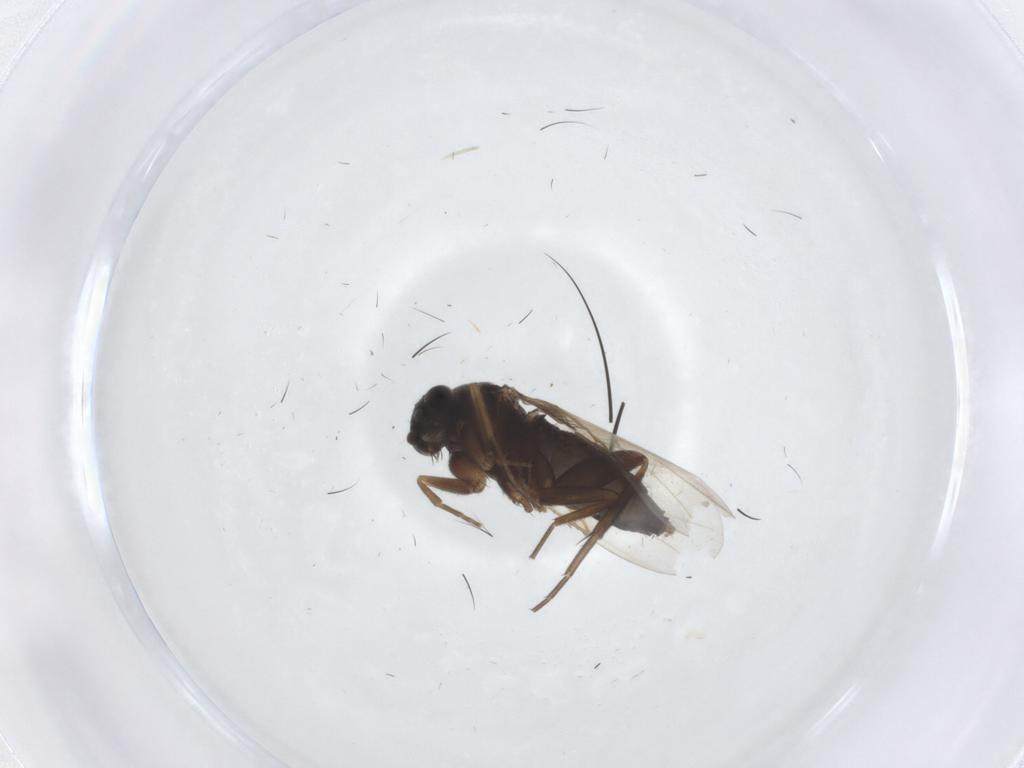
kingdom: Animalia
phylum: Arthropoda
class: Insecta
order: Diptera
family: Phoridae
